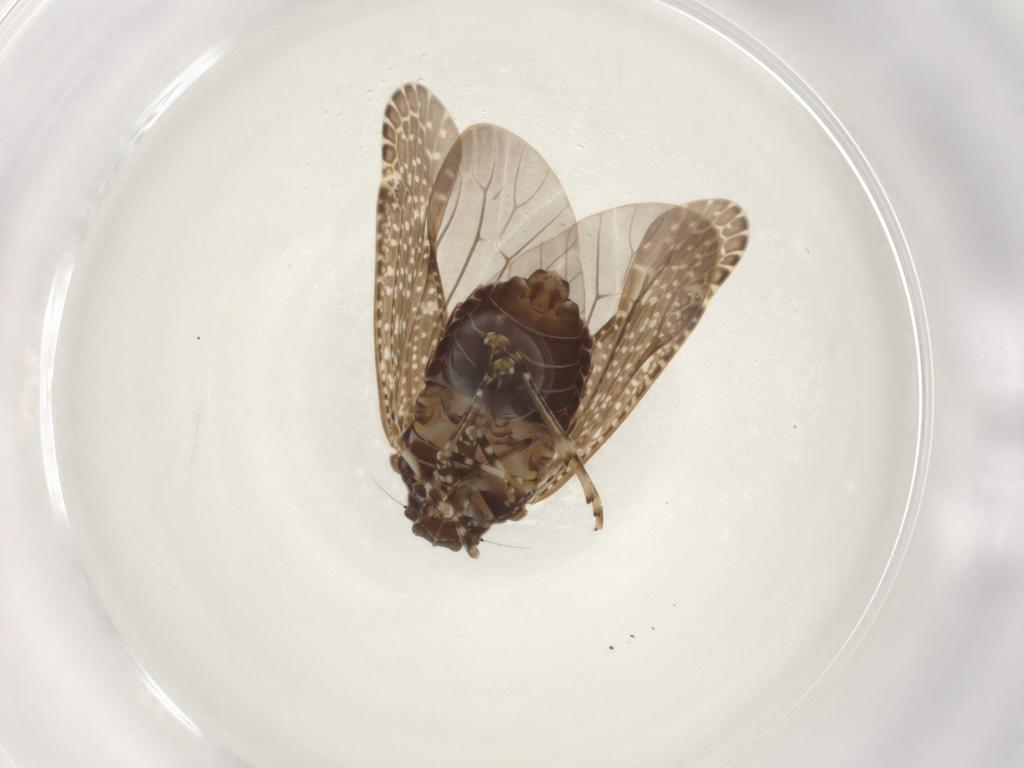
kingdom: Animalia
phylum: Arthropoda
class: Insecta
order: Hemiptera
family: Achilidae
